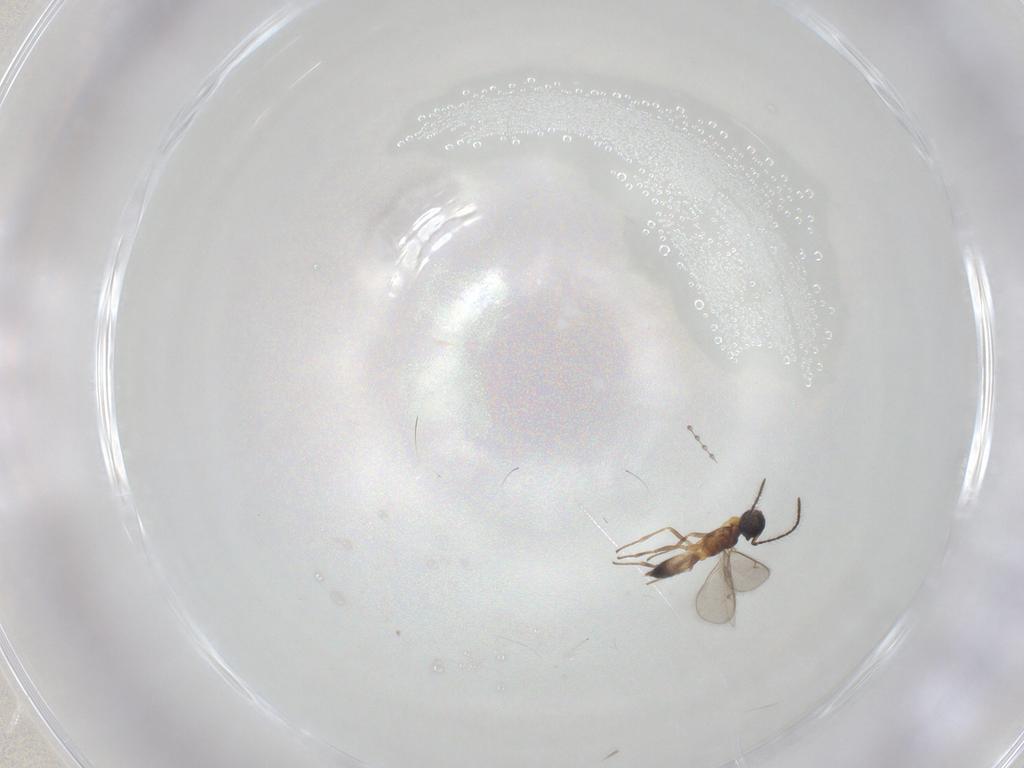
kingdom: Animalia
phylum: Arthropoda
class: Insecta
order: Hymenoptera
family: Eupelmidae
